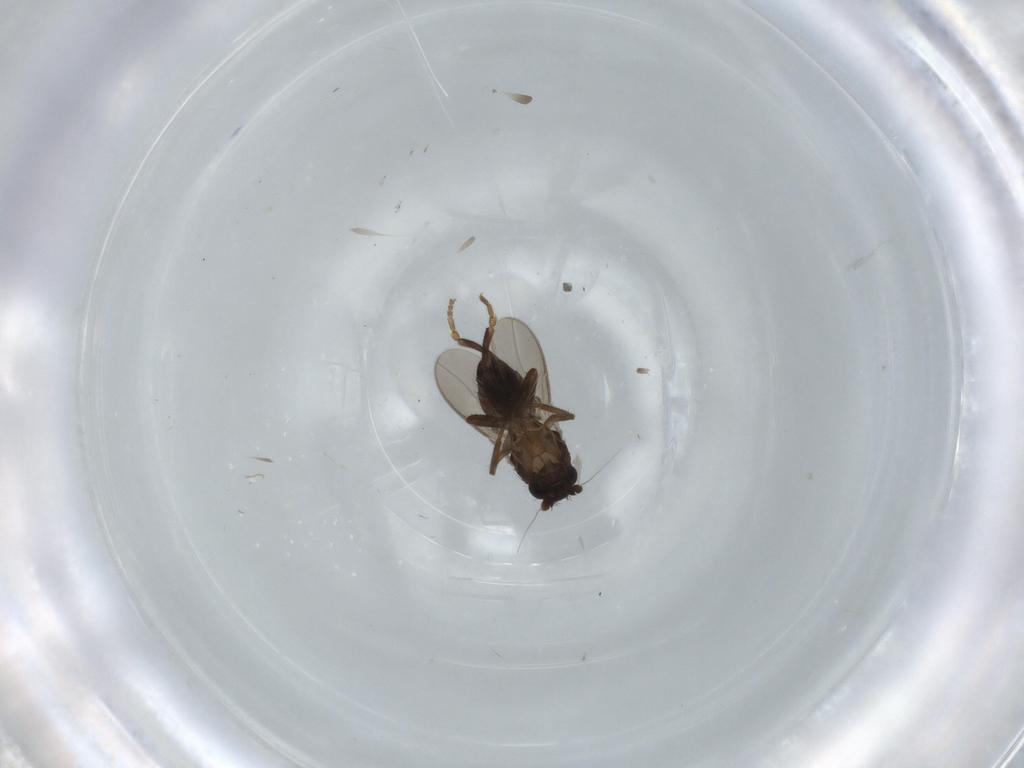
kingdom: Animalia
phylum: Arthropoda
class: Insecta
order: Diptera
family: Sphaeroceridae
